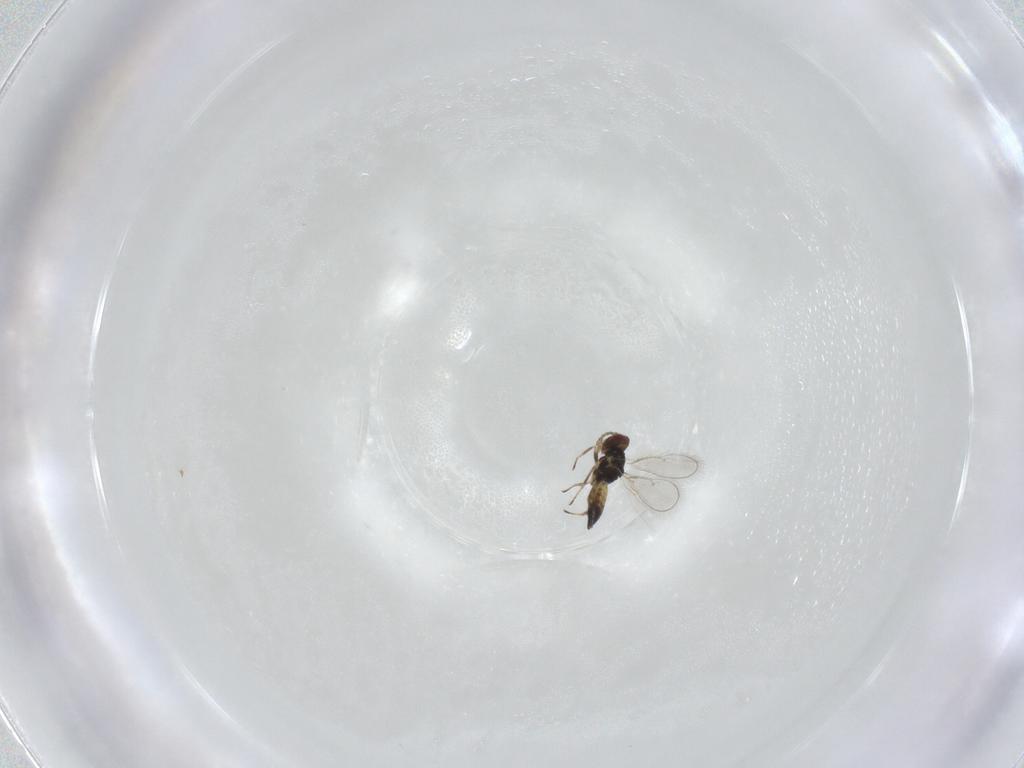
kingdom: Animalia
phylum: Arthropoda
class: Insecta
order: Hymenoptera
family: Eulophidae
